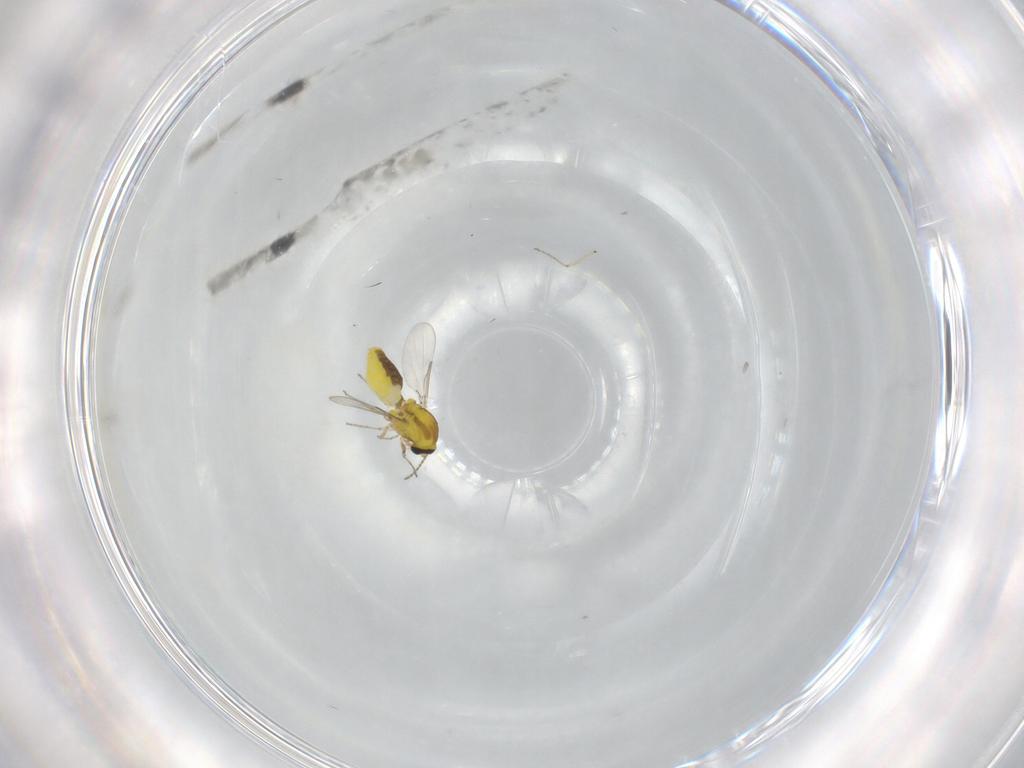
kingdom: Animalia
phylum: Arthropoda
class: Insecta
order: Diptera
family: Ceratopogonidae
